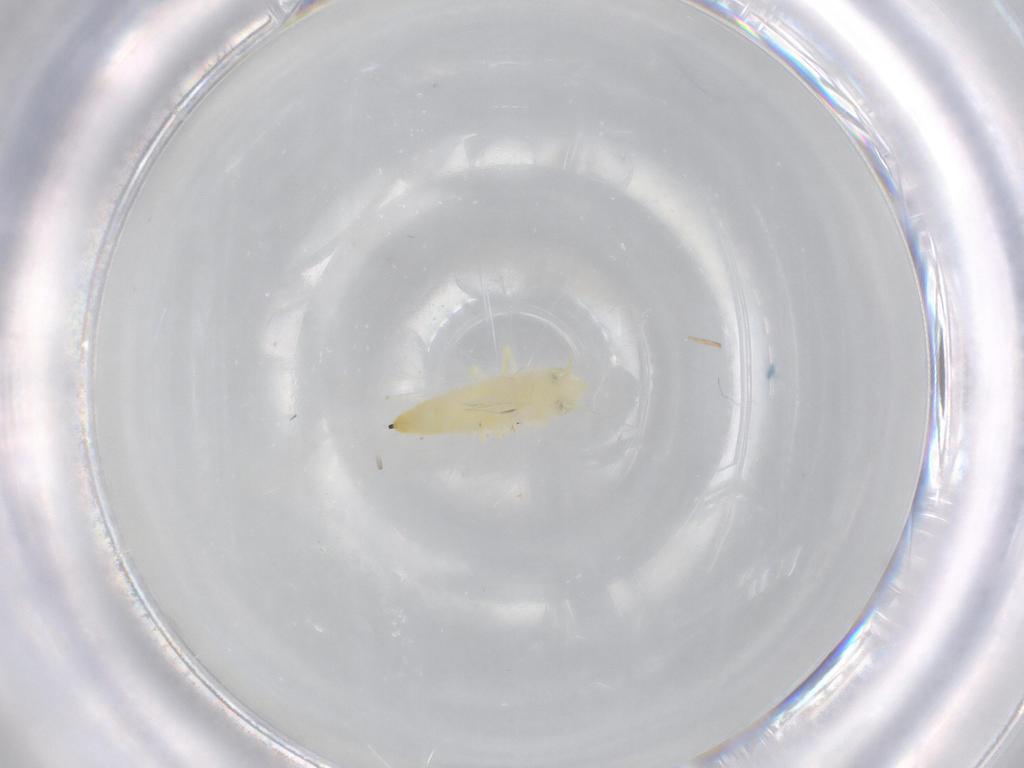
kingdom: Animalia
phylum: Arthropoda
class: Insecta
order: Hemiptera
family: Cicadellidae
